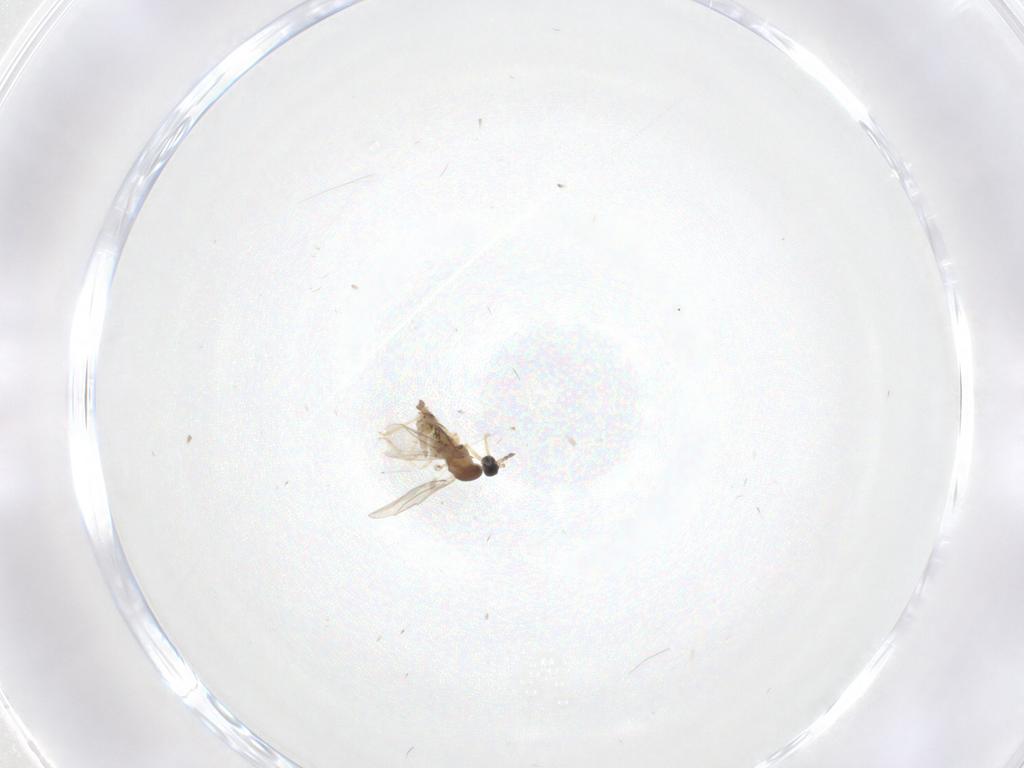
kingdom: Animalia
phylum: Arthropoda
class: Insecta
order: Diptera
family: Cecidomyiidae
